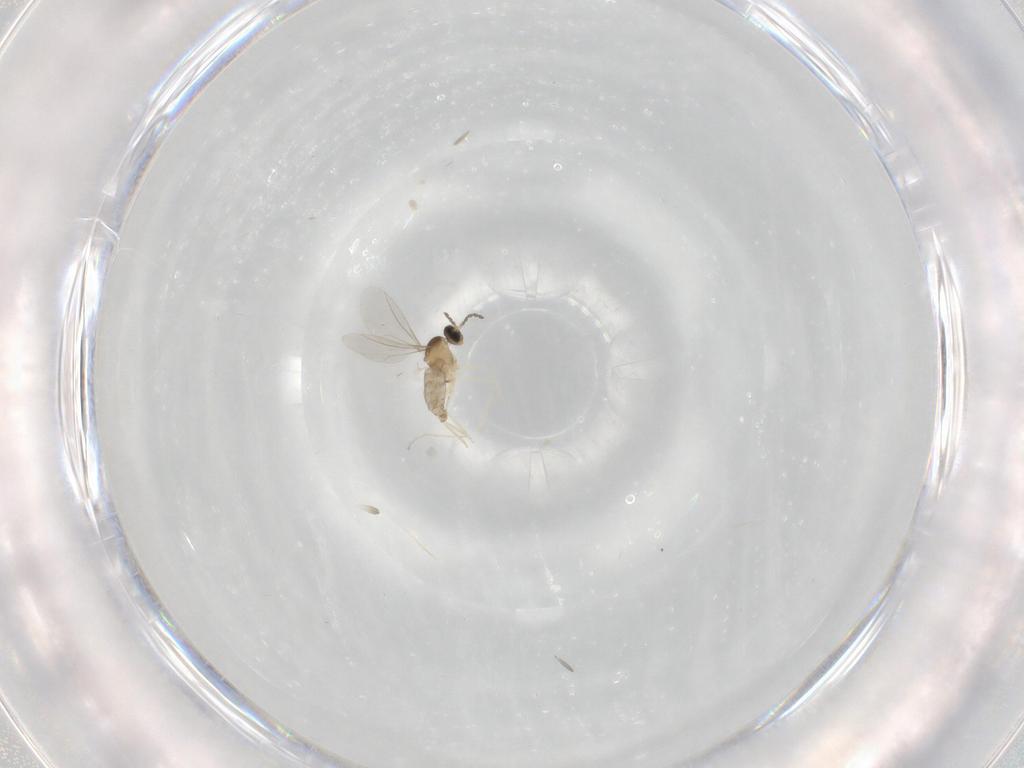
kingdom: Animalia
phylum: Arthropoda
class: Insecta
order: Diptera
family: Cecidomyiidae
